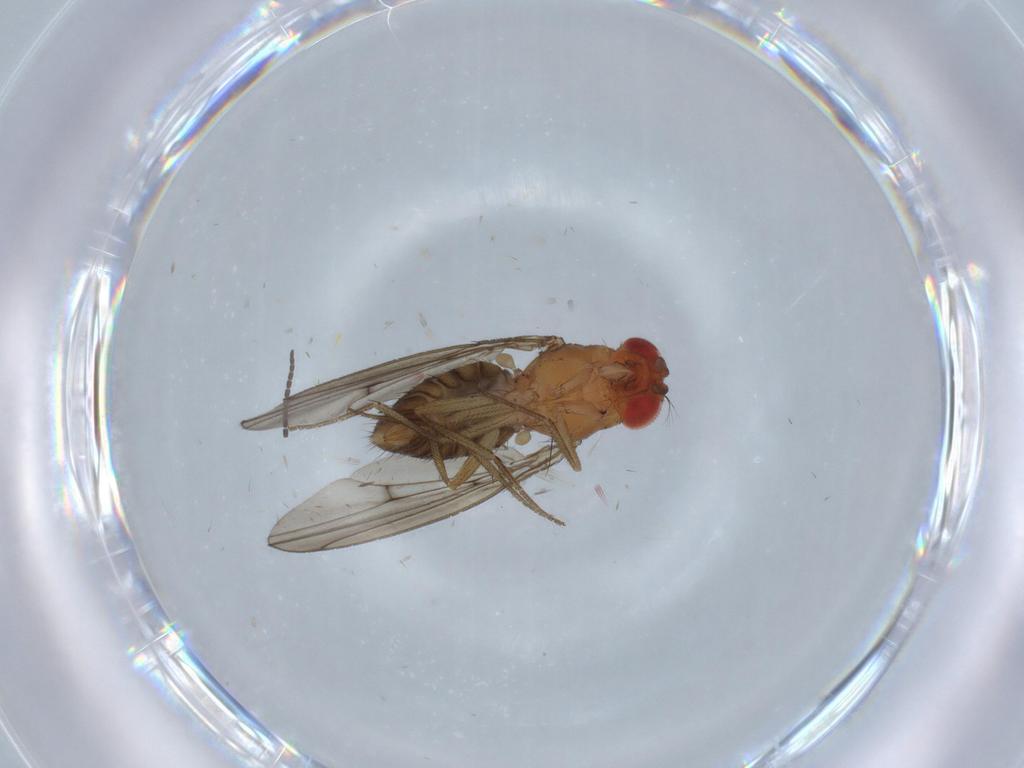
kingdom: Animalia
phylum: Arthropoda
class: Insecta
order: Diptera
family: Drosophilidae
